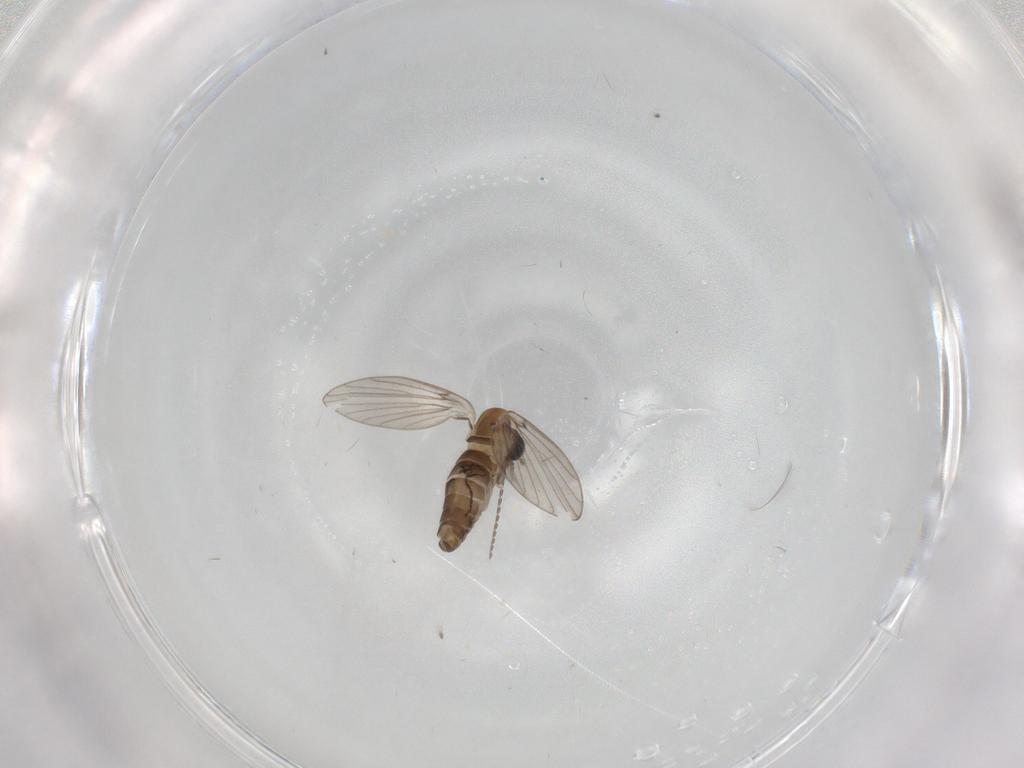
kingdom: Animalia
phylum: Arthropoda
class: Insecta
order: Diptera
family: Psychodidae
